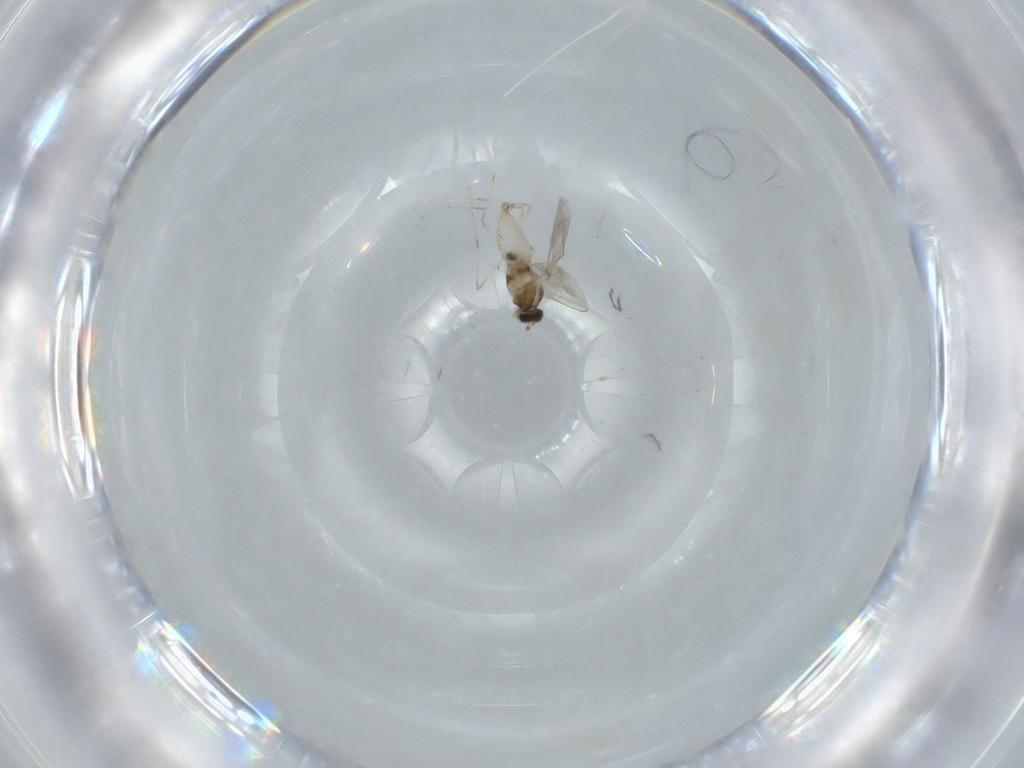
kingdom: Animalia
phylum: Arthropoda
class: Insecta
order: Diptera
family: Cecidomyiidae
